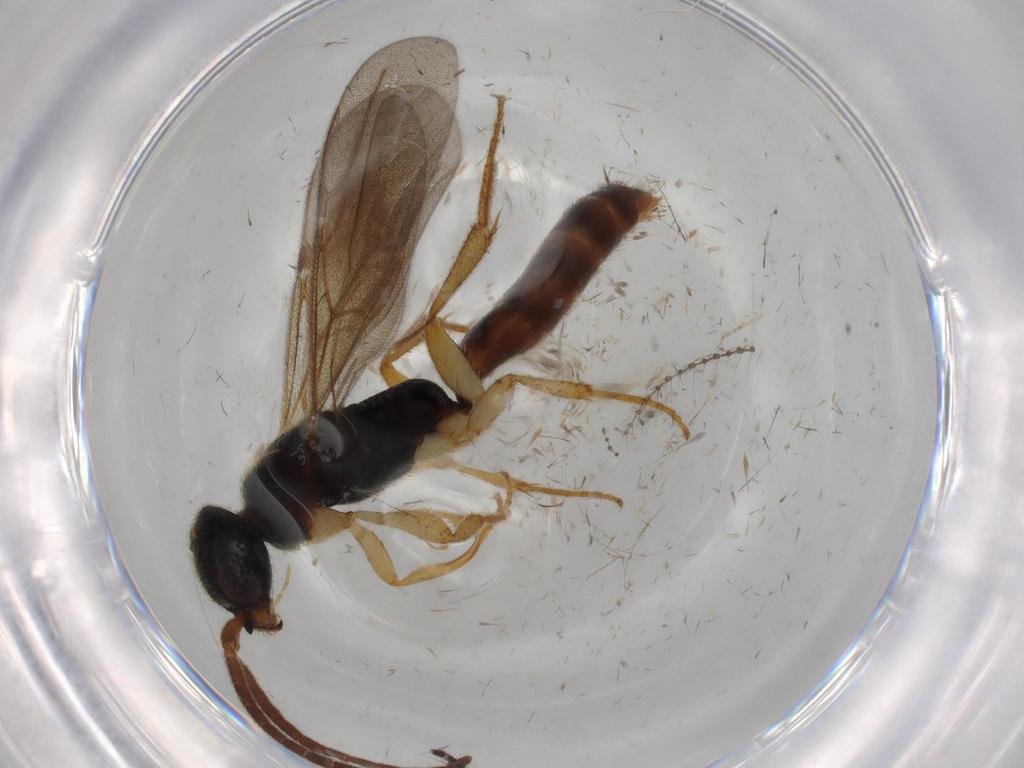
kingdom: Animalia
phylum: Arthropoda
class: Insecta
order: Hymenoptera
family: Bethylidae
